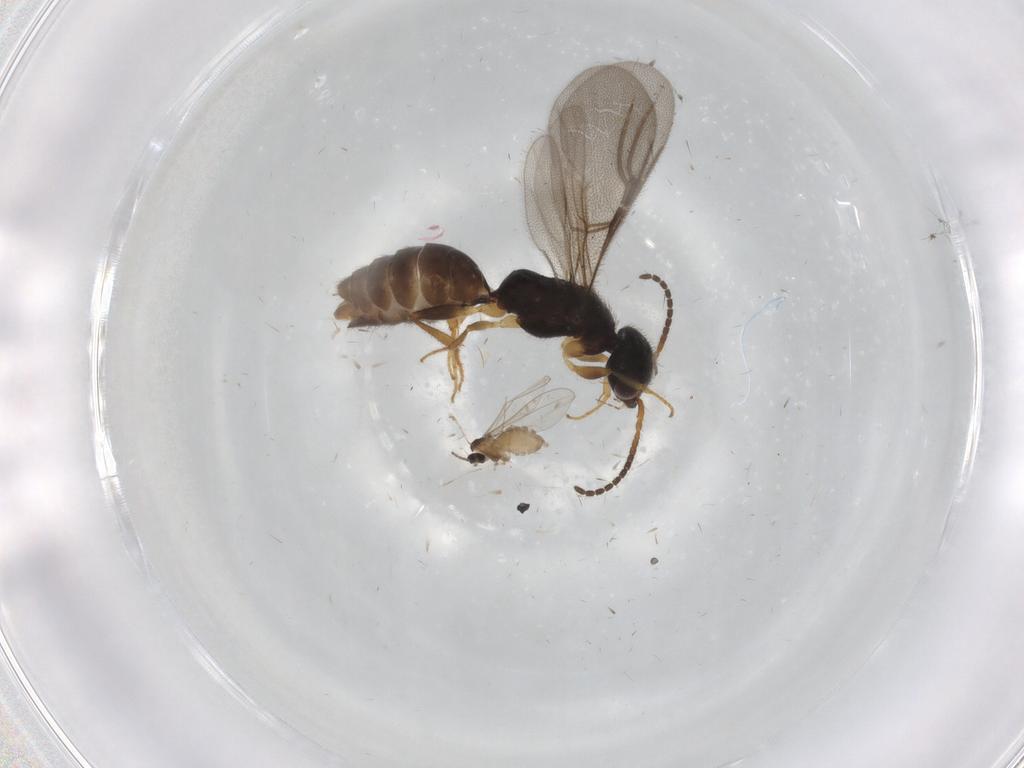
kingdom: Animalia
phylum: Arthropoda
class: Insecta
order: Diptera
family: Cecidomyiidae
